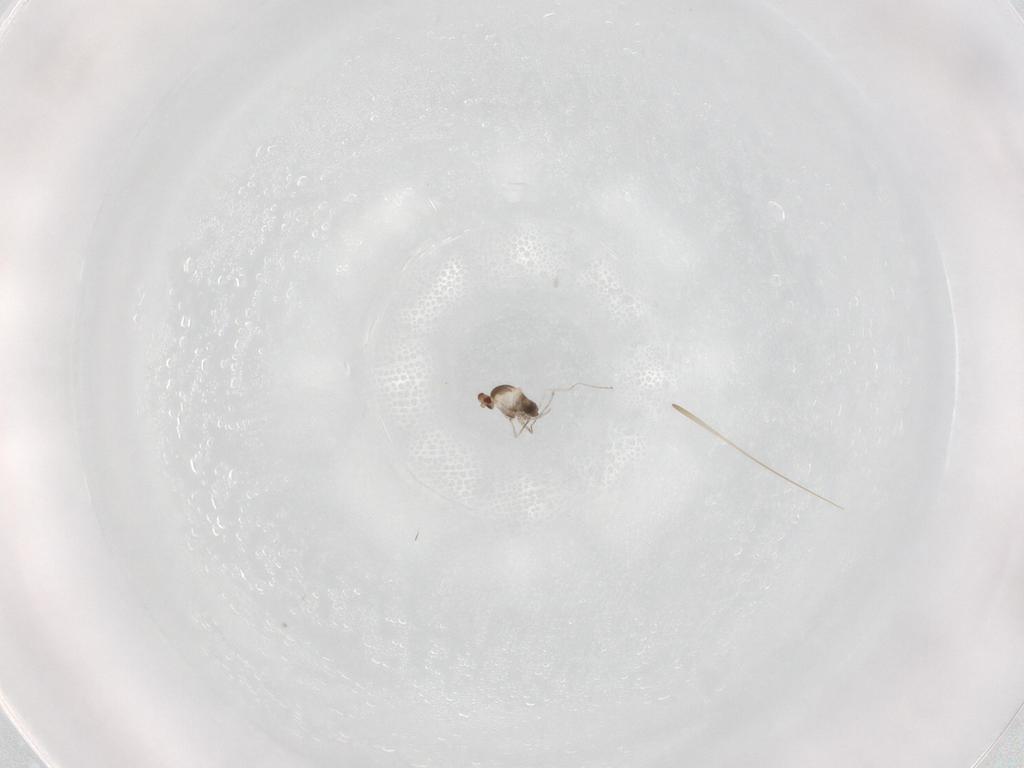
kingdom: Animalia
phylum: Arthropoda
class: Insecta
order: Diptera
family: Cecidomyiidae
